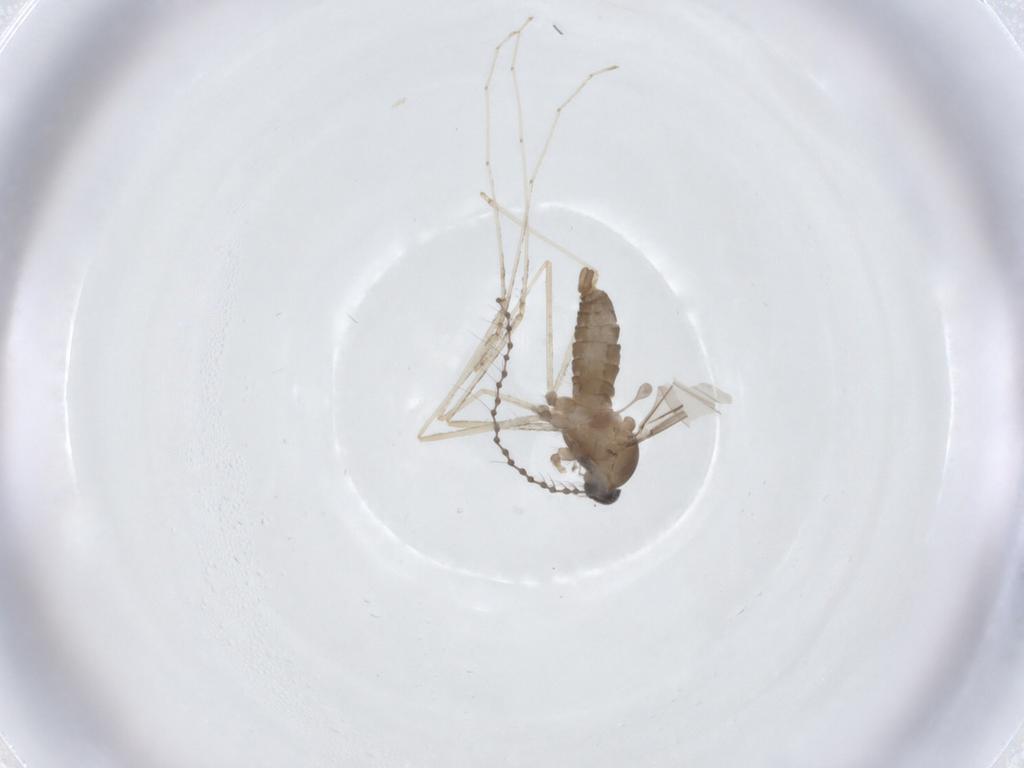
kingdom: Animalia
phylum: Arthropoda
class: Insecta
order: Diptera
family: Cecidomyiidae
